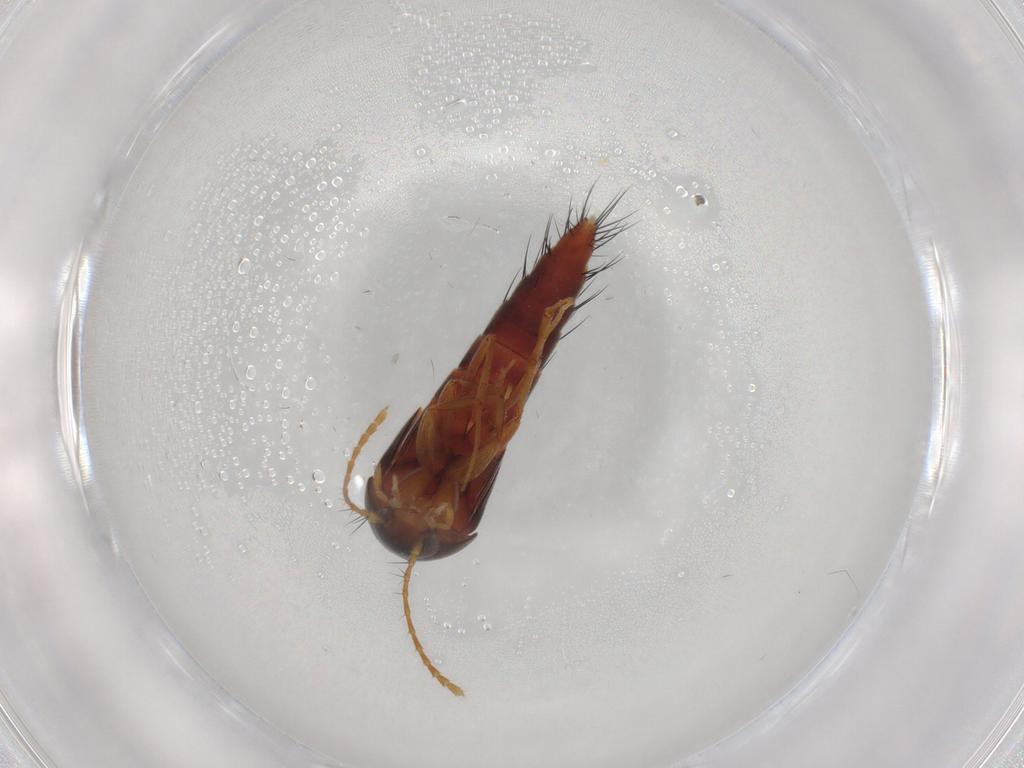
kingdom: Animalia
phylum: Arthropoda
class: Insecta
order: Coleoptera
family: Staphylinidae
